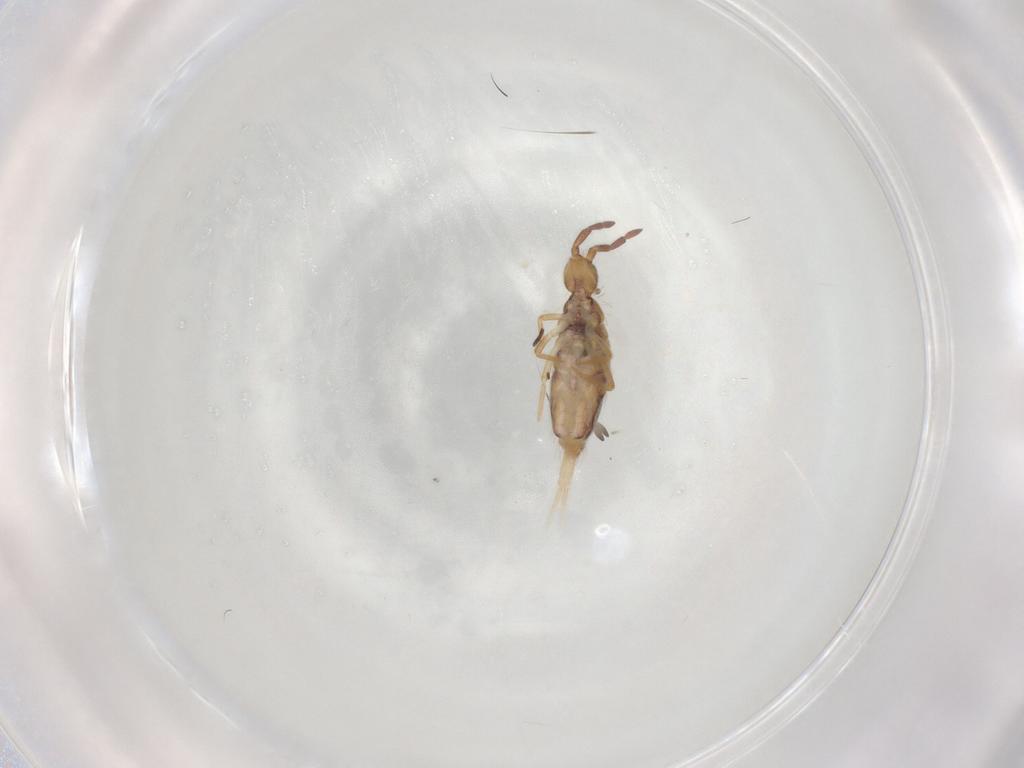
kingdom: Animalia
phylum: Arthropoda
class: Collembola
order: Entomobryomorpha
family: Entomobryidae
